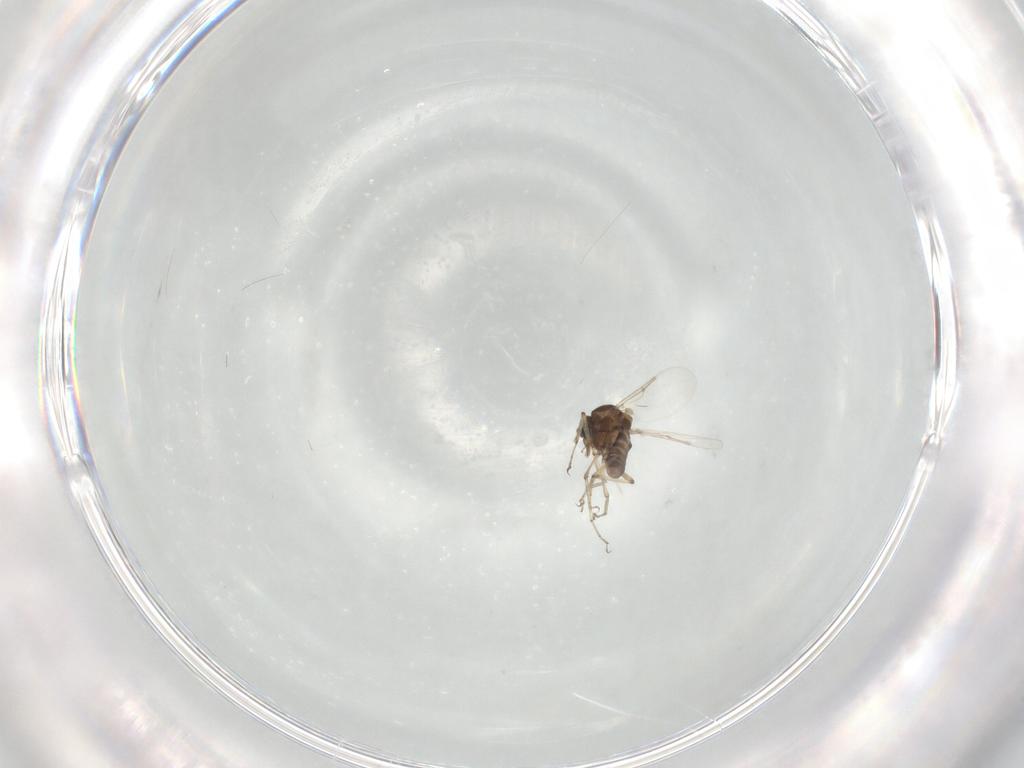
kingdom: Animalia
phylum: Arthropoda
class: Insecta
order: Diptera
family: Ceratopogonidae
